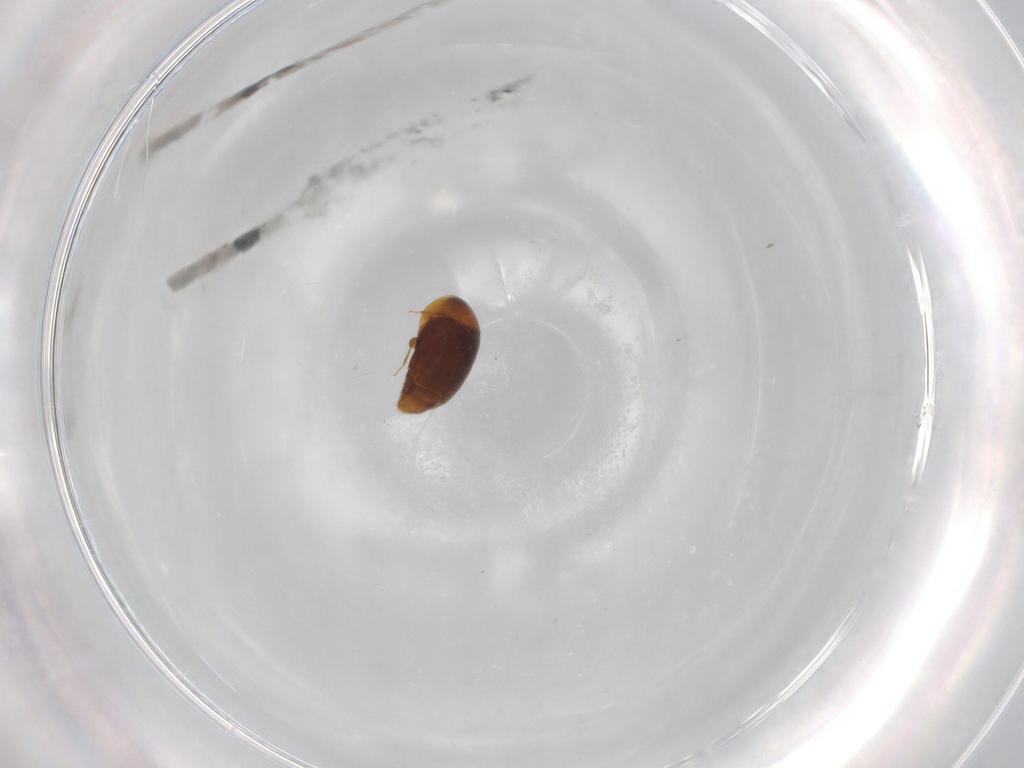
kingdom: Animalia
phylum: Arthropoda
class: Insecta
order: Coleoptera
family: Corylophidae
